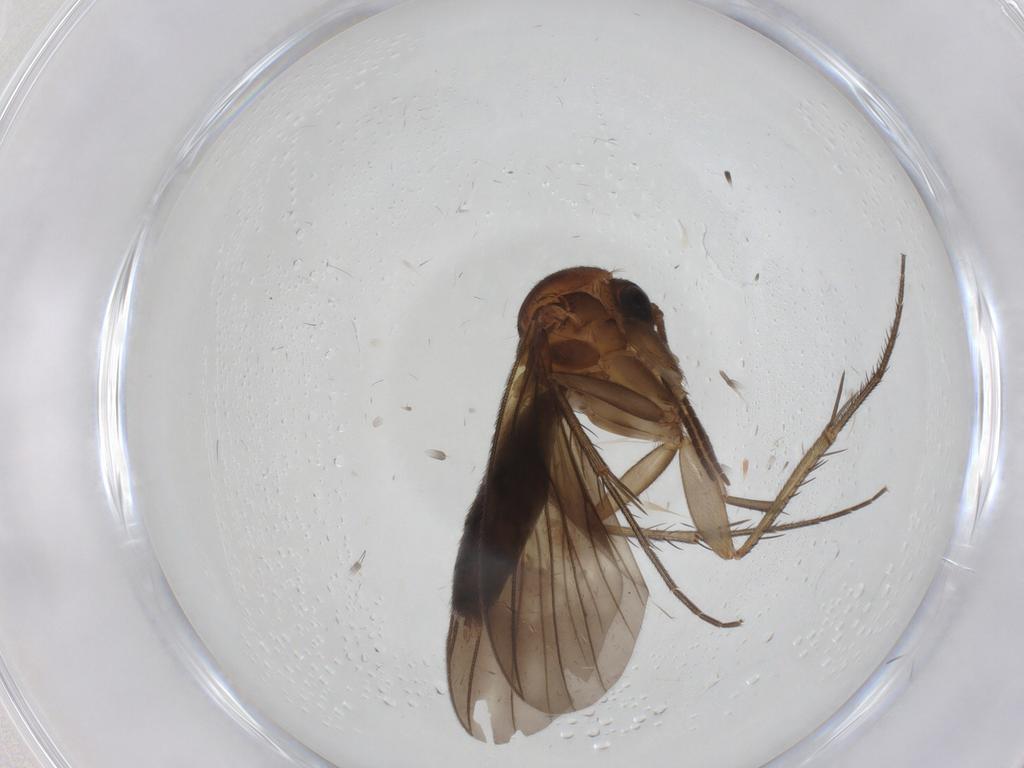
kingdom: Animalia
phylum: Arthropoda
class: Insecta
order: Diptera
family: Mycetophilidae
